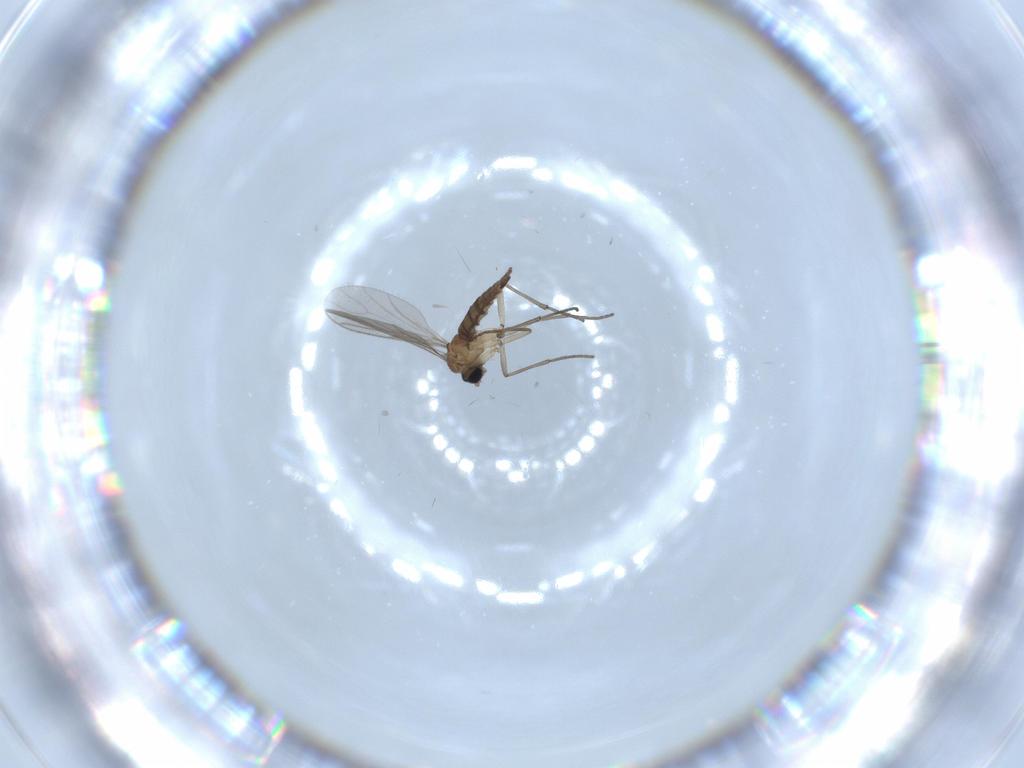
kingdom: Animalia
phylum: Arthropoda
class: Insecta
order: Diptera
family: Sciaridae
